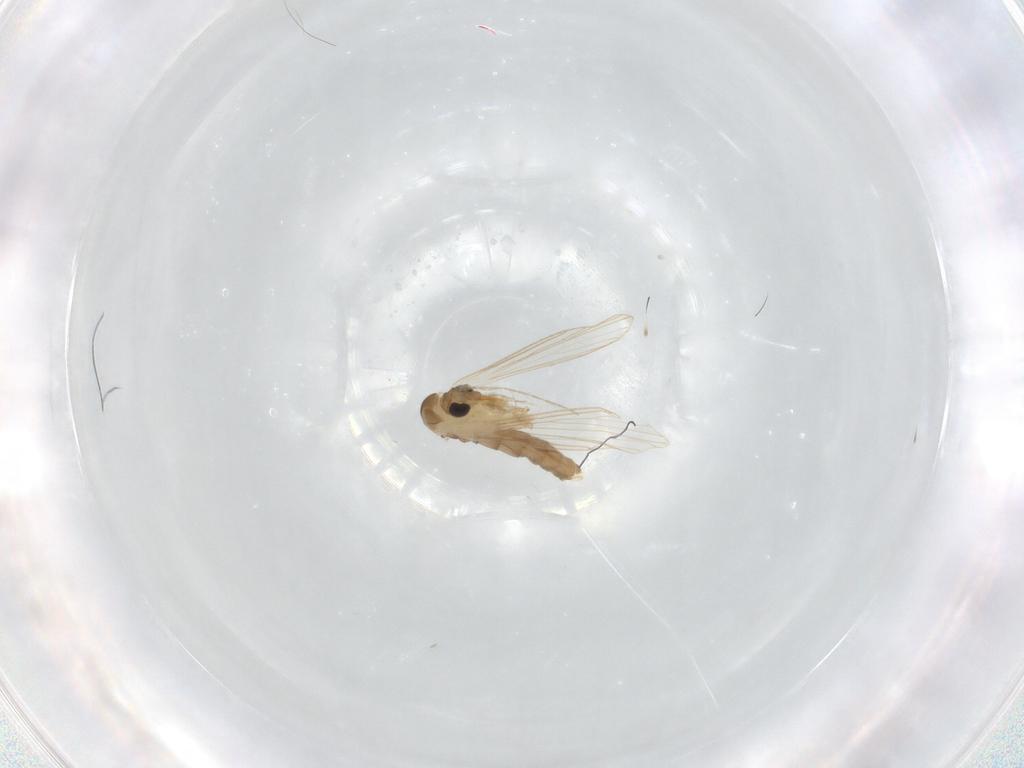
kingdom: Animalia
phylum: Arthropoda
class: Insecta
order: Diptera
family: Psychodidae
